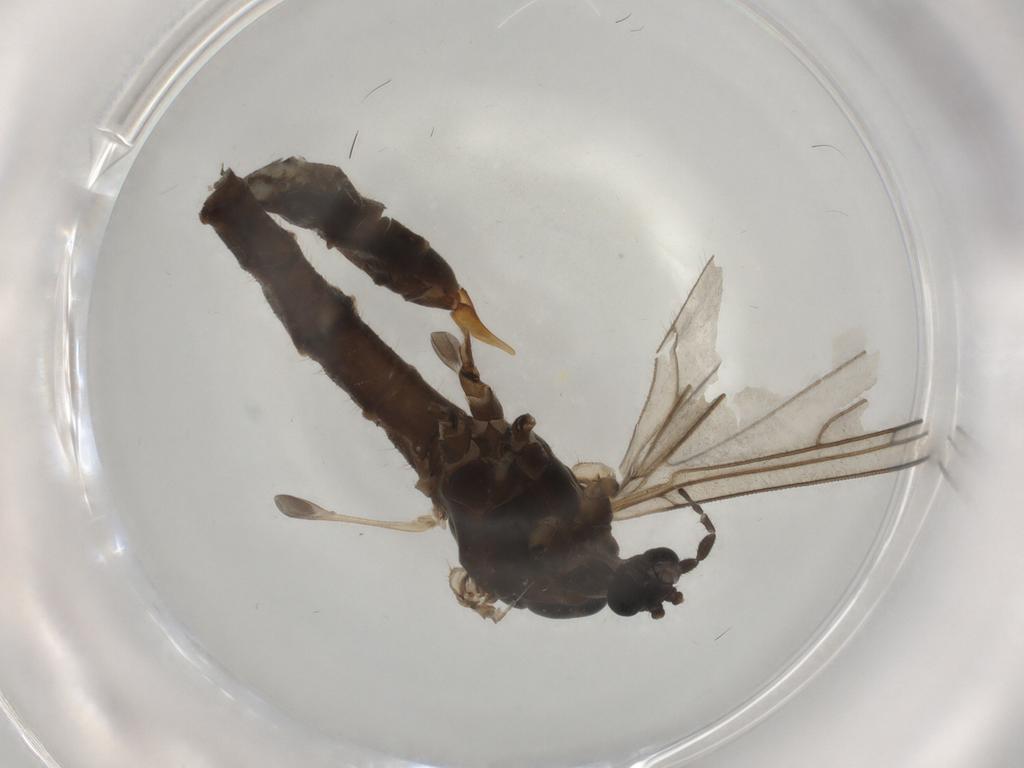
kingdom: Animalia
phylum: Arthropoda
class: Insecta
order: Diptera
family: Trichoceridae
